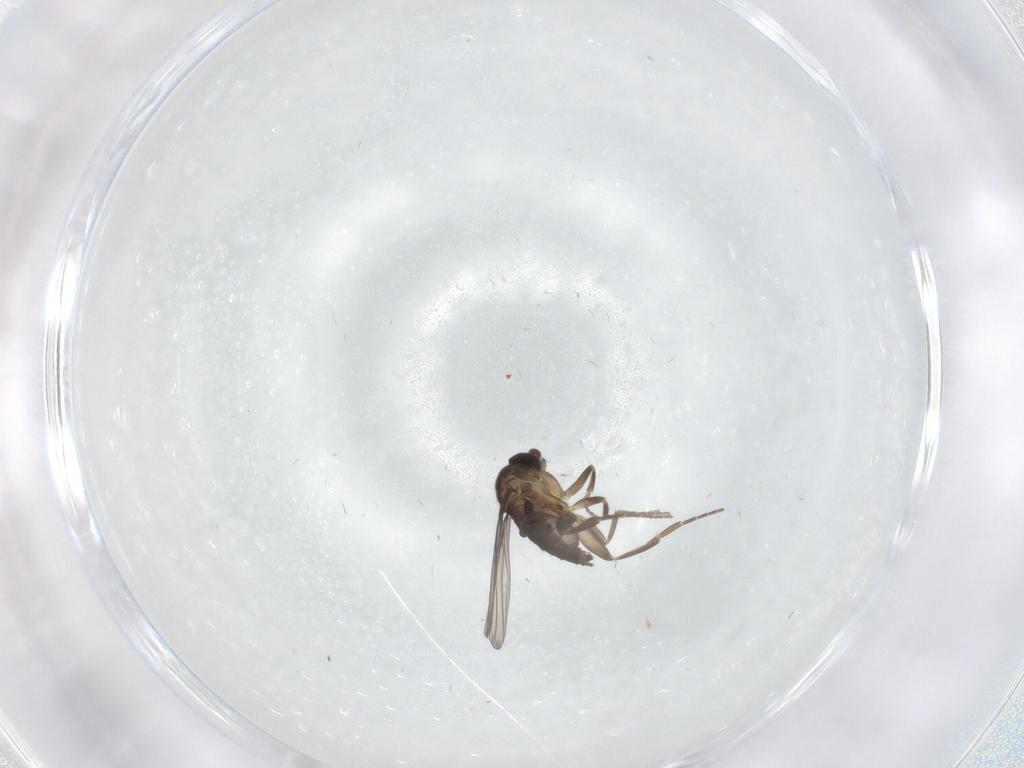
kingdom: Animalia
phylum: Arthropoda
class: Insecta
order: Diptera
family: Phoridae
